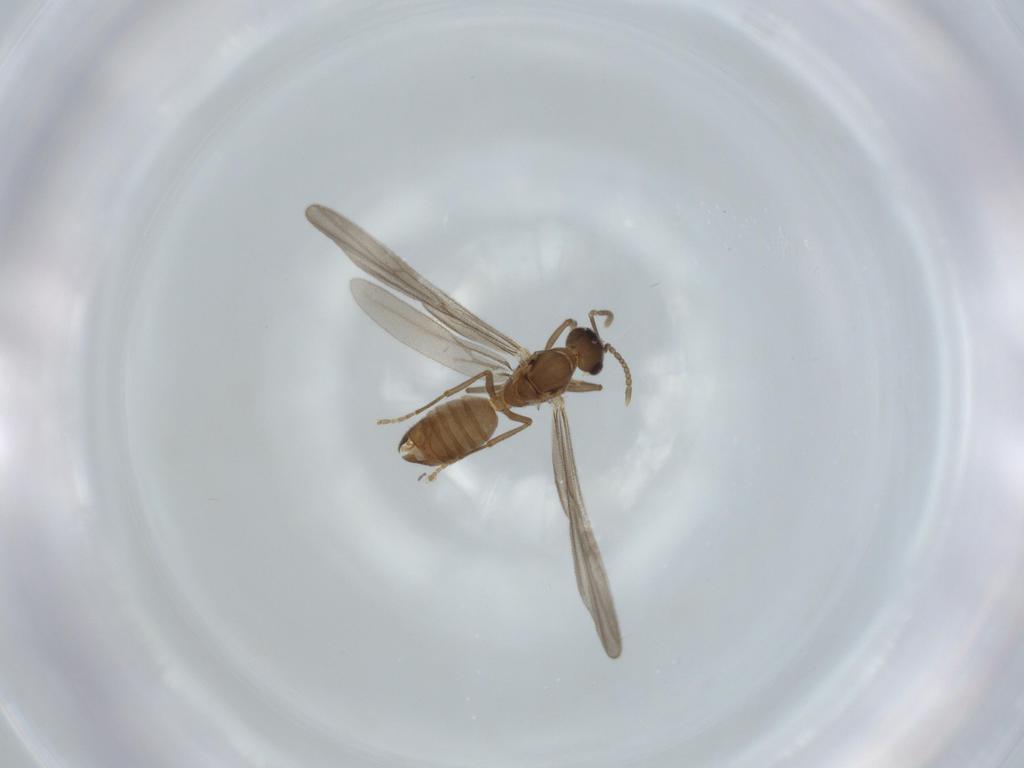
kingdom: Animalia
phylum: Arthropoda
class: Insecta
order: Hymenoptera
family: Formicidae
